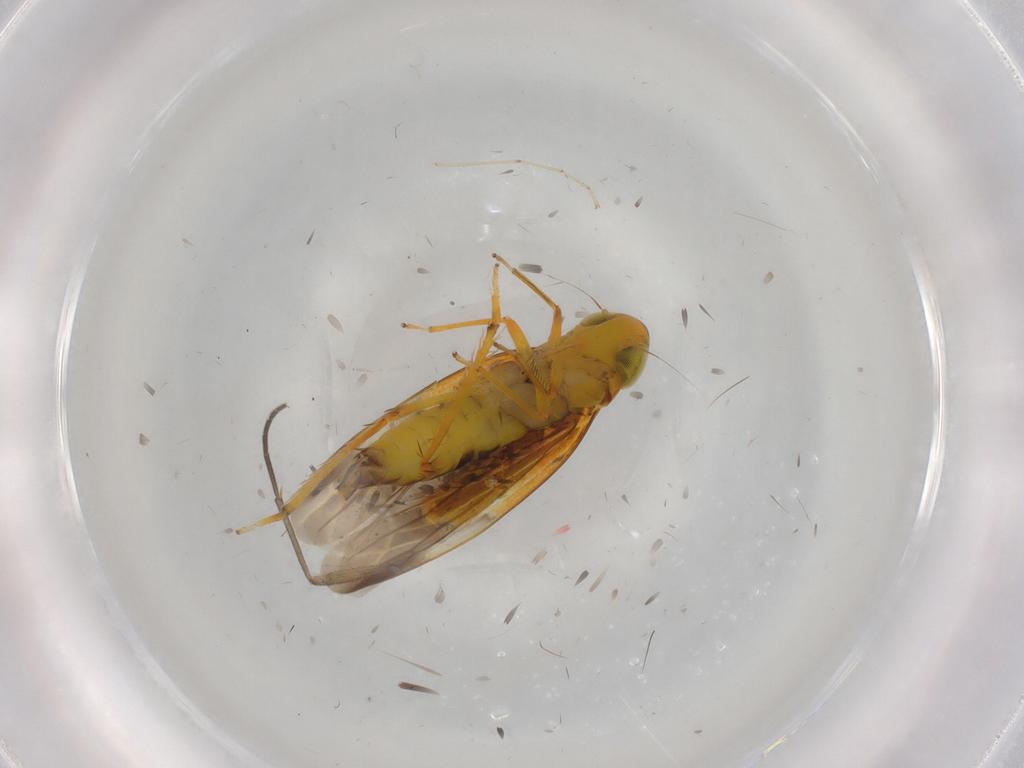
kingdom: Animalia
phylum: Arthropoda
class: Insecta
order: Hemiptera
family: Cicadellidae
